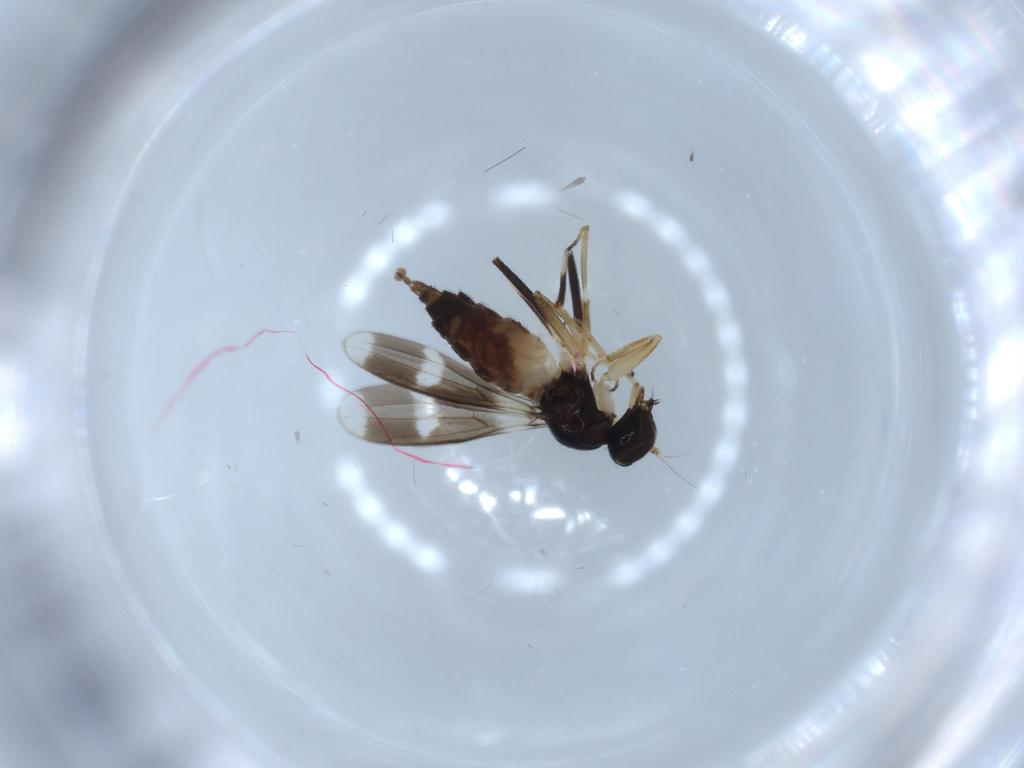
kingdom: Animalia
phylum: Arthropoda
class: Insecta
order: Diptera
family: Hybotidae
